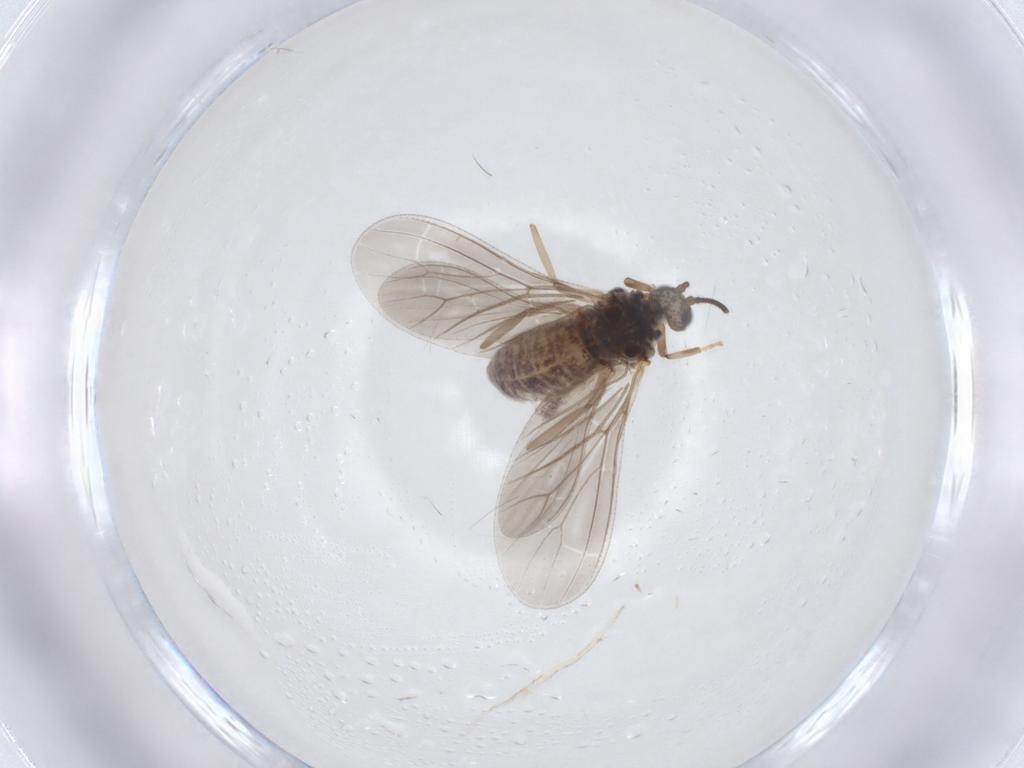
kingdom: Animalia
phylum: Arthropoda
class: Insecta
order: Neuroptera
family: Coniopterygidae
